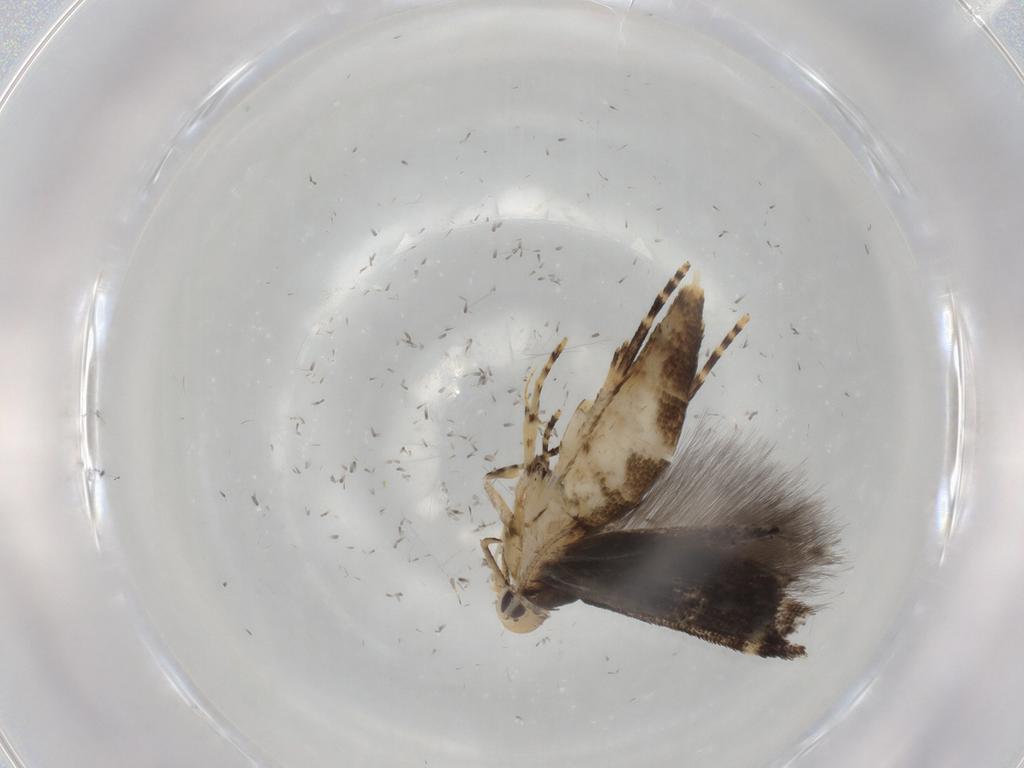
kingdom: Animalia
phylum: Arthropoda
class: Insecta
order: Lepidoptera
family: Cosmopterigidae
